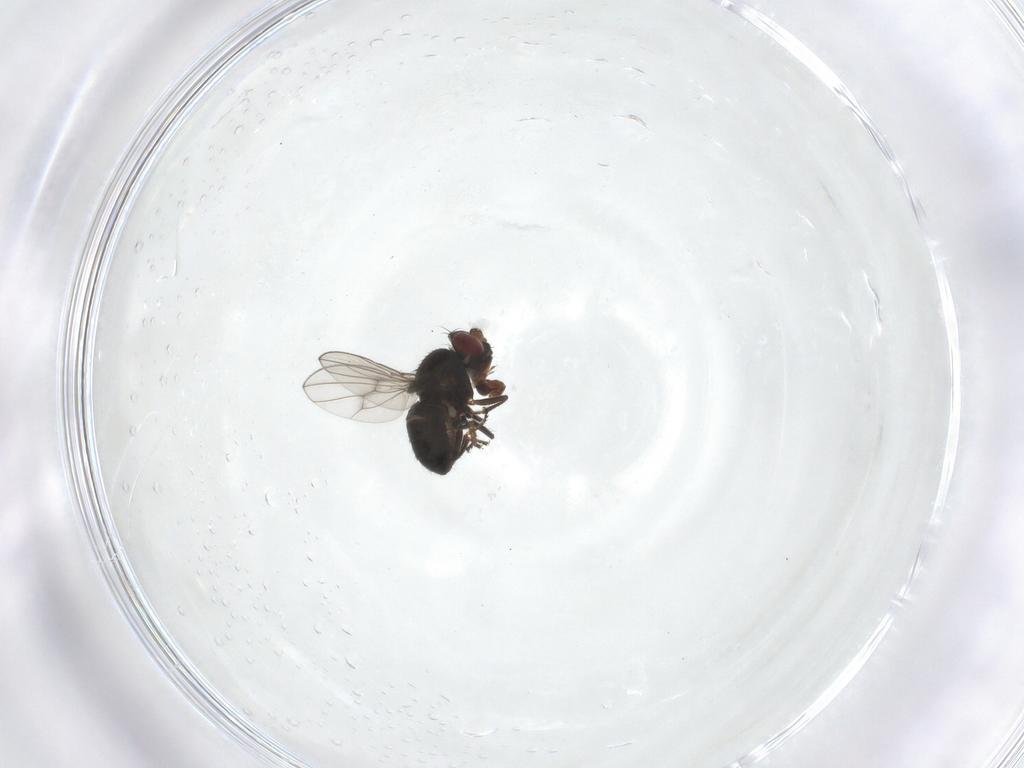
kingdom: Animalia
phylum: Arthropoda
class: Insecta
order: Diptera
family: Ephydridae
